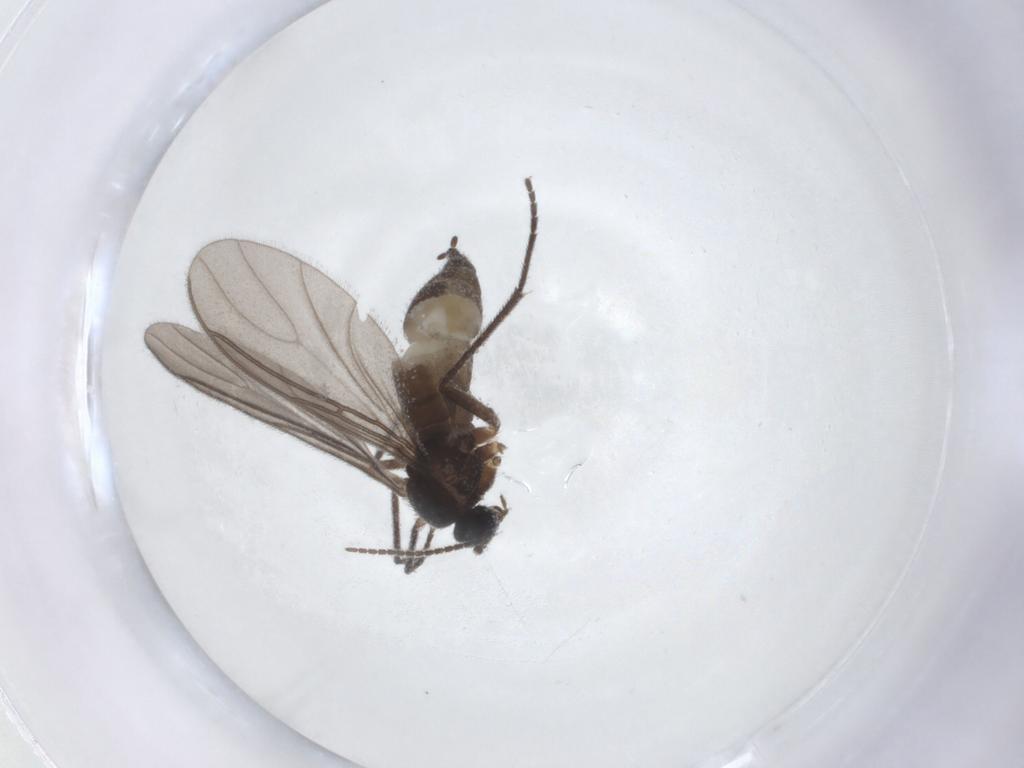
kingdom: Animalia
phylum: Arthropoda
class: Insecta
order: Diptera
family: Sciaridae
